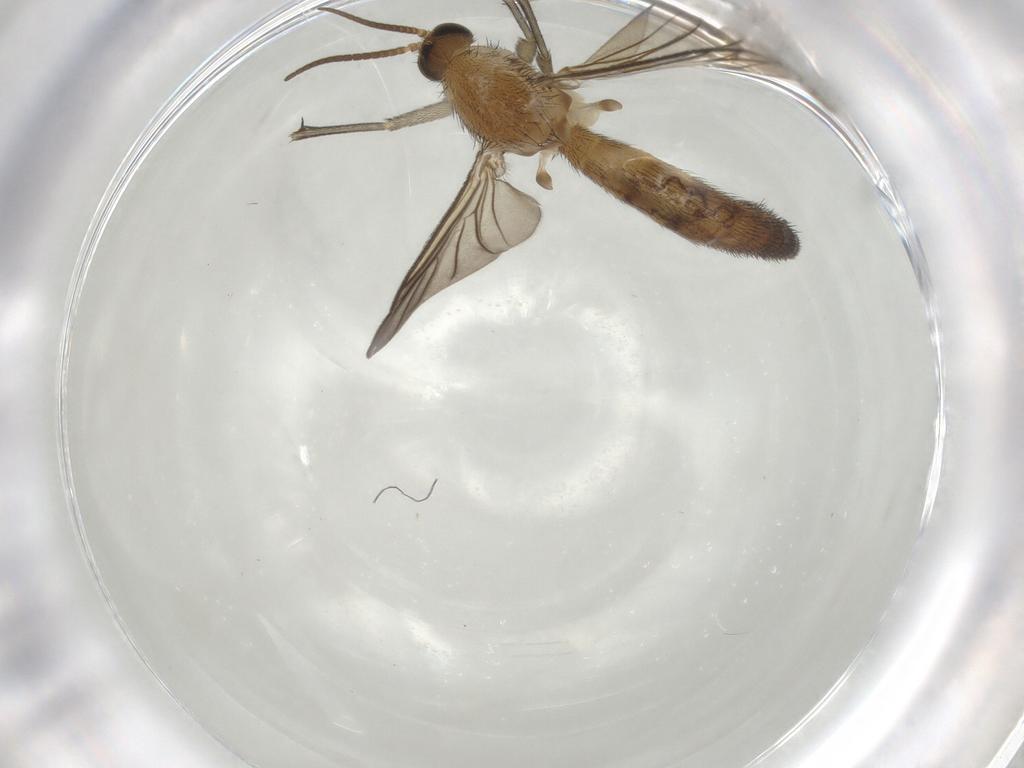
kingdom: Animalia
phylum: Arthropoda
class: Insecta
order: Diptera
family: Keroplatidae
